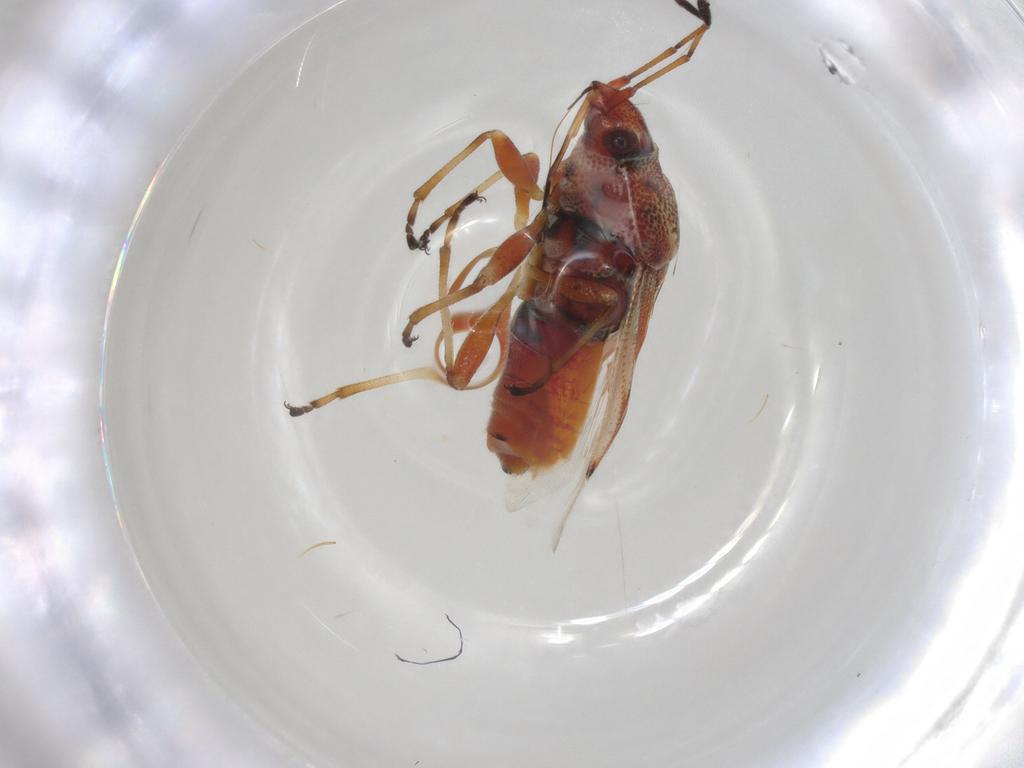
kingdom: Animalia
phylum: Arthropoda
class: Insecta
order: Hemiptera
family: Lygaeidae
